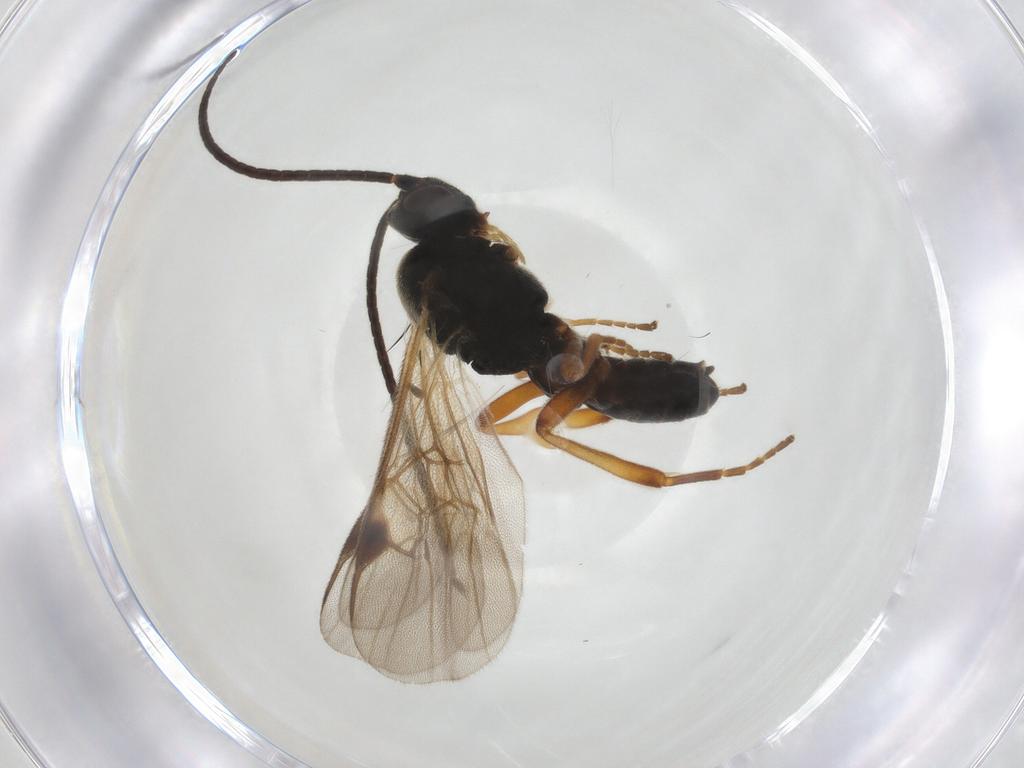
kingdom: Animalia
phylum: Arthropoda
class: Insecta
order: Hymenoptera
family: Braconidae
